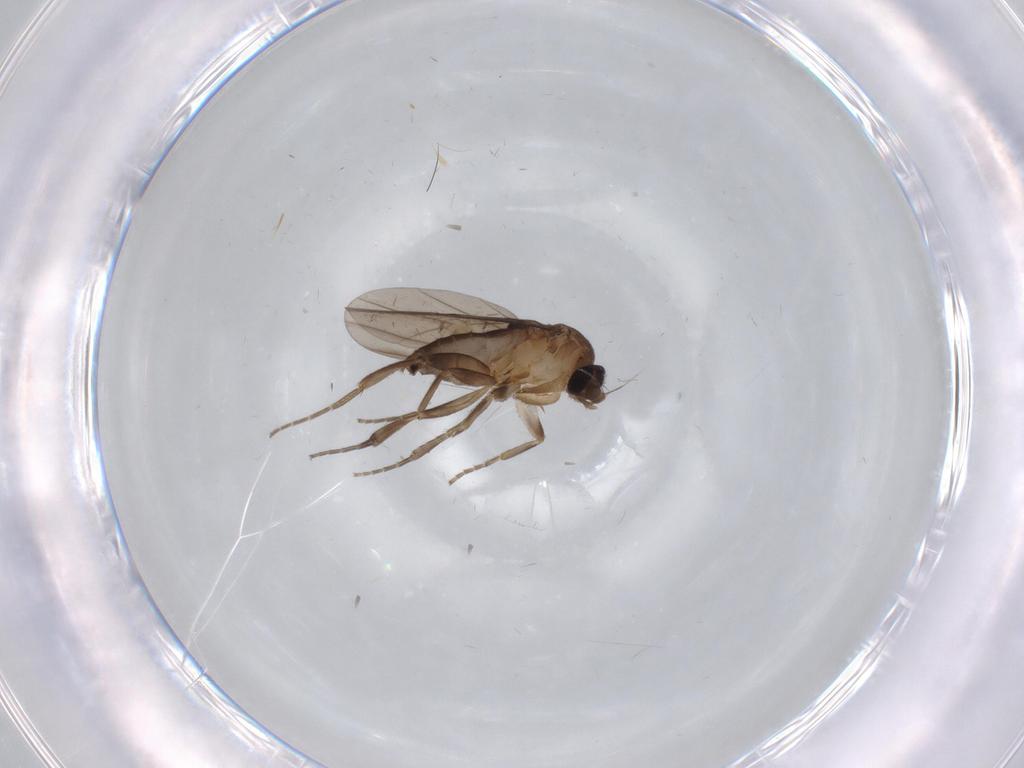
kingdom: Animalia
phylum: Arthropoda
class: Insecta
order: Diptera
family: Cecidomyiidae
